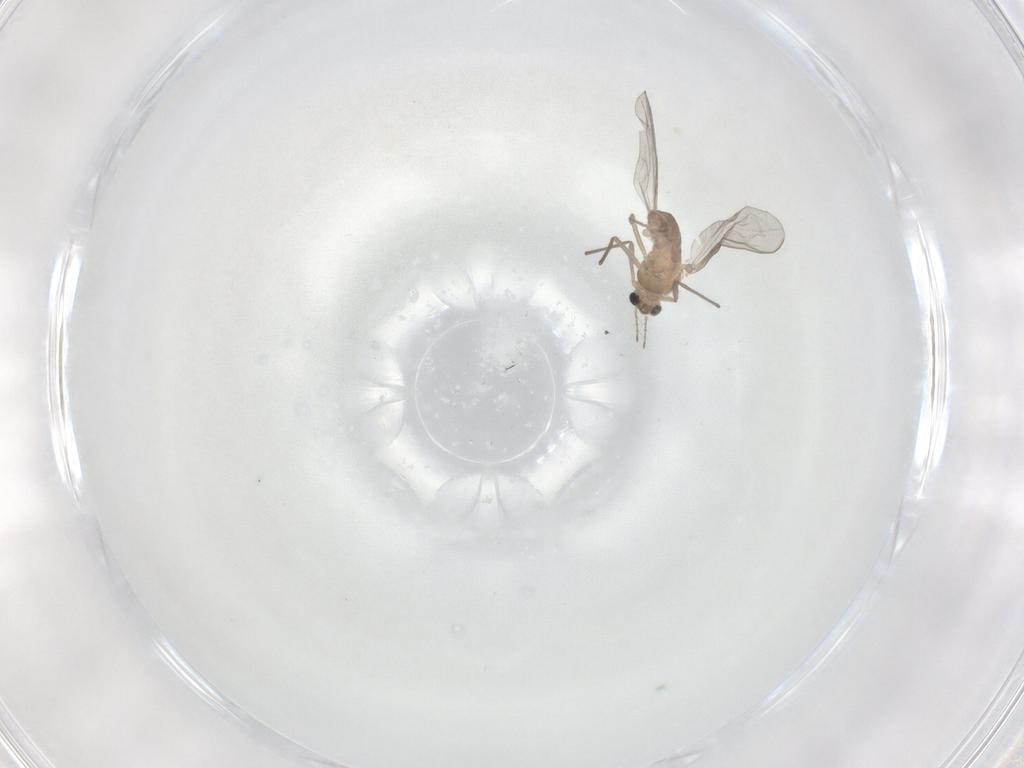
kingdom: Animalia
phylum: Arthropoda
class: Insecta
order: Diptera
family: Chironomidae
